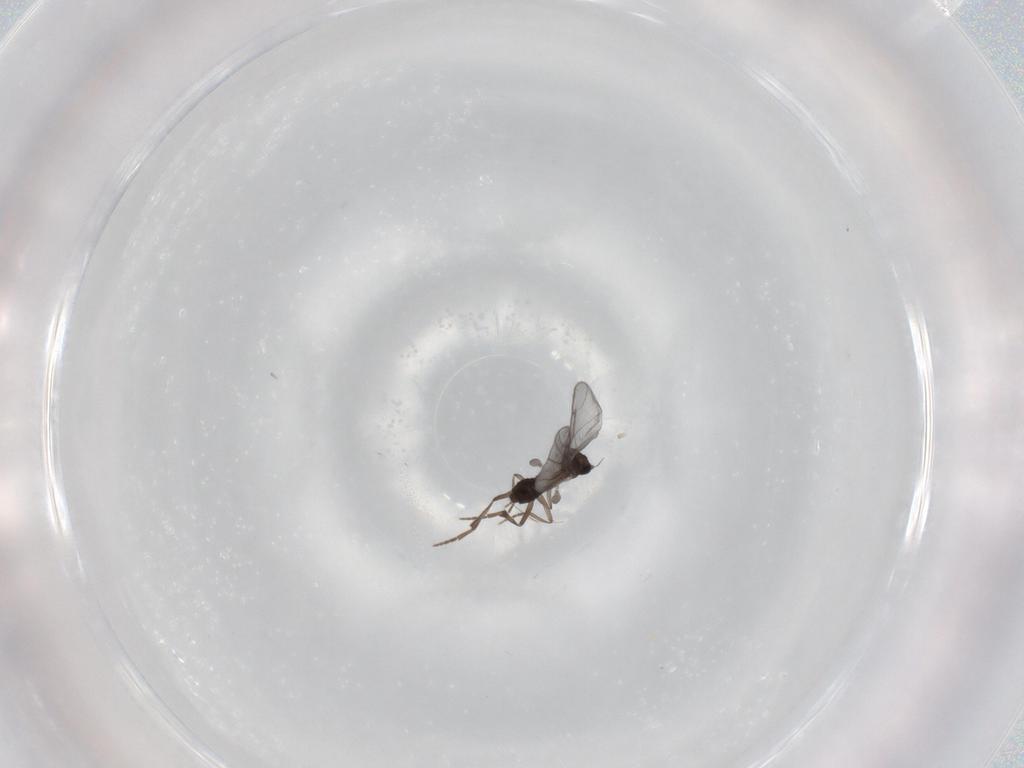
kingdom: Animalia
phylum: Arthropoda
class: Insecta
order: Diptera
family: Phoridae
